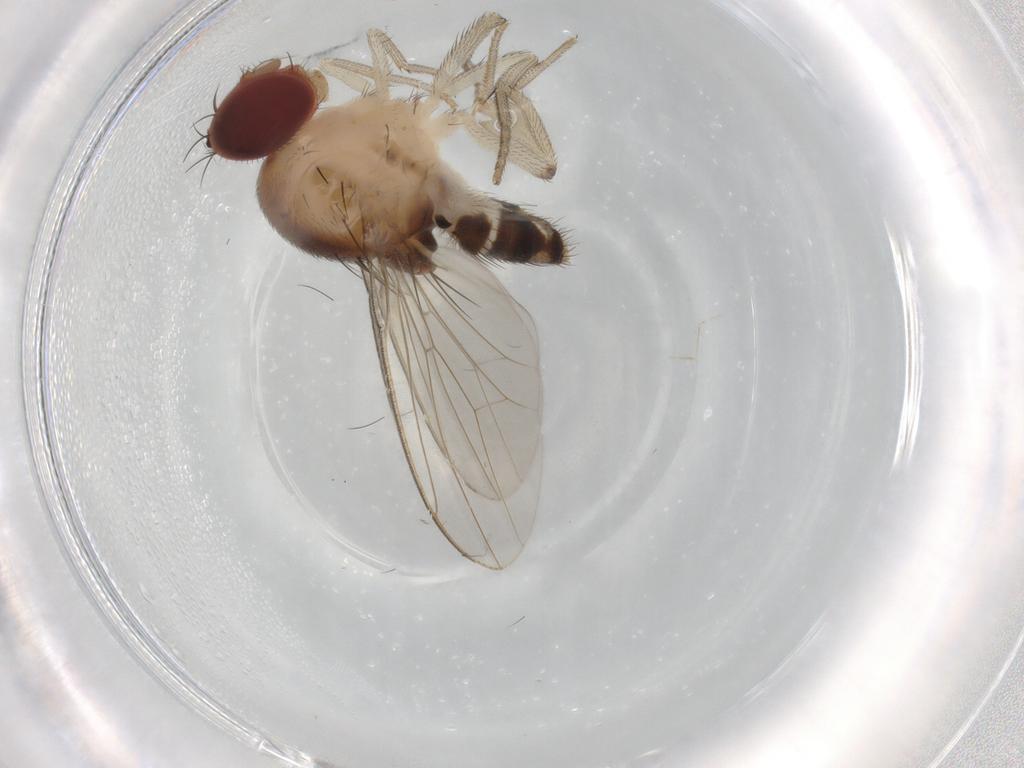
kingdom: Animalia
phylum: Arthropoda
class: Insecta
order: Diptera
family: Drosophilidae
